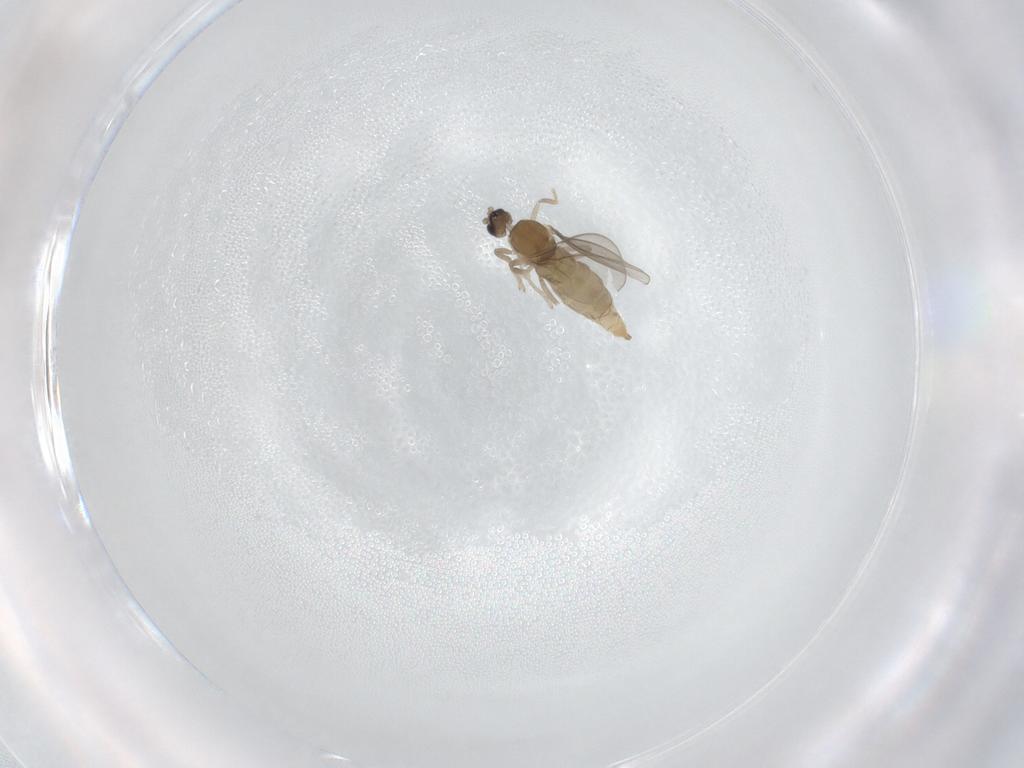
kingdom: Animalia
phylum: Arthropoda
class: Insecta
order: Diptera
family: Cecidomyiidae
